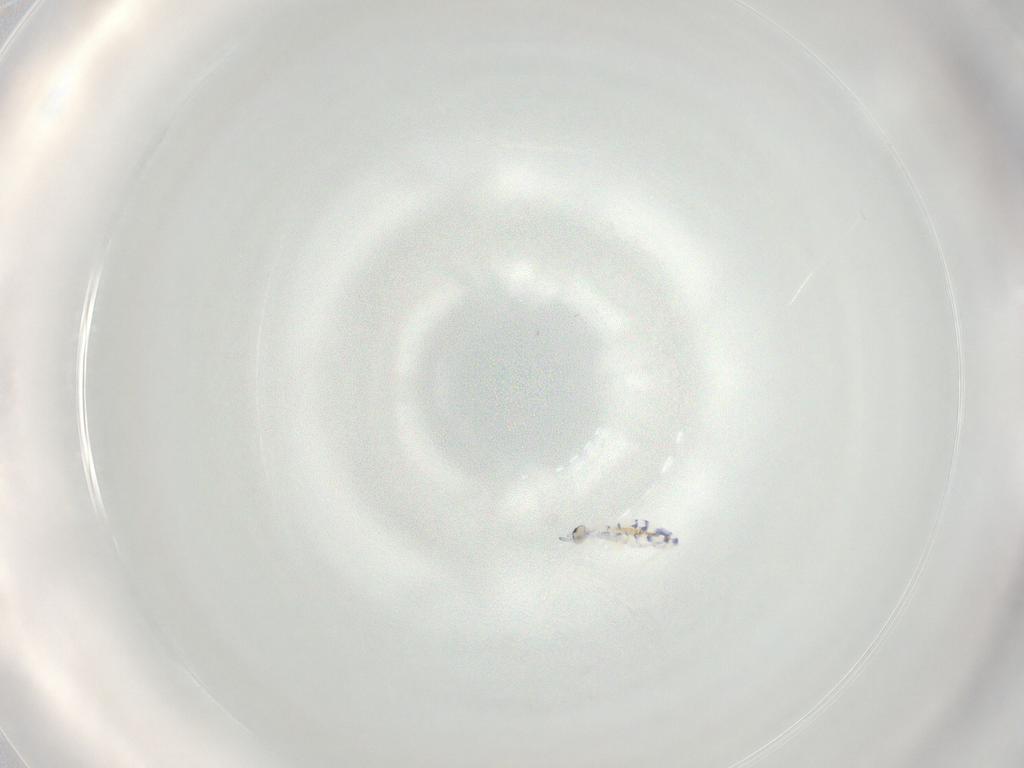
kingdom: Animalia
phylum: Arthropoda
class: Collembola
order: Entomobryomorpha
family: Entomobryidae
